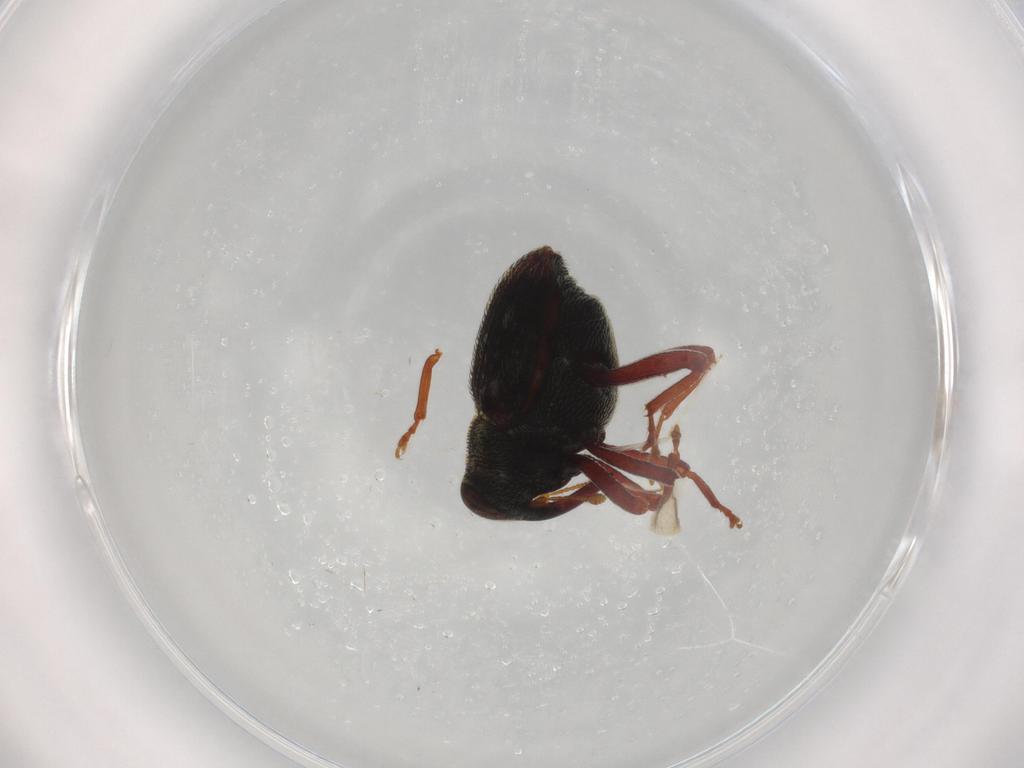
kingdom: Animalia
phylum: Arthropoda
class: Insecta
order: Coleoptera
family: Curculionidae
